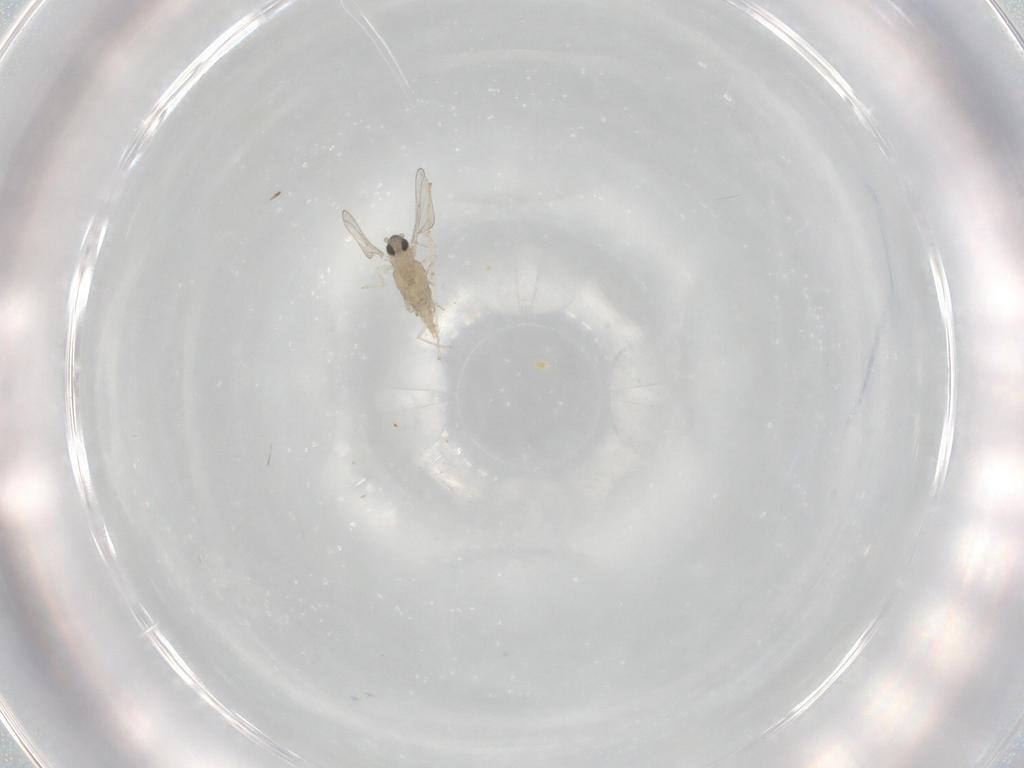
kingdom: Animalia
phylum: Arthropoda
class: Insecta
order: Diptera
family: Cecidomyiidae
